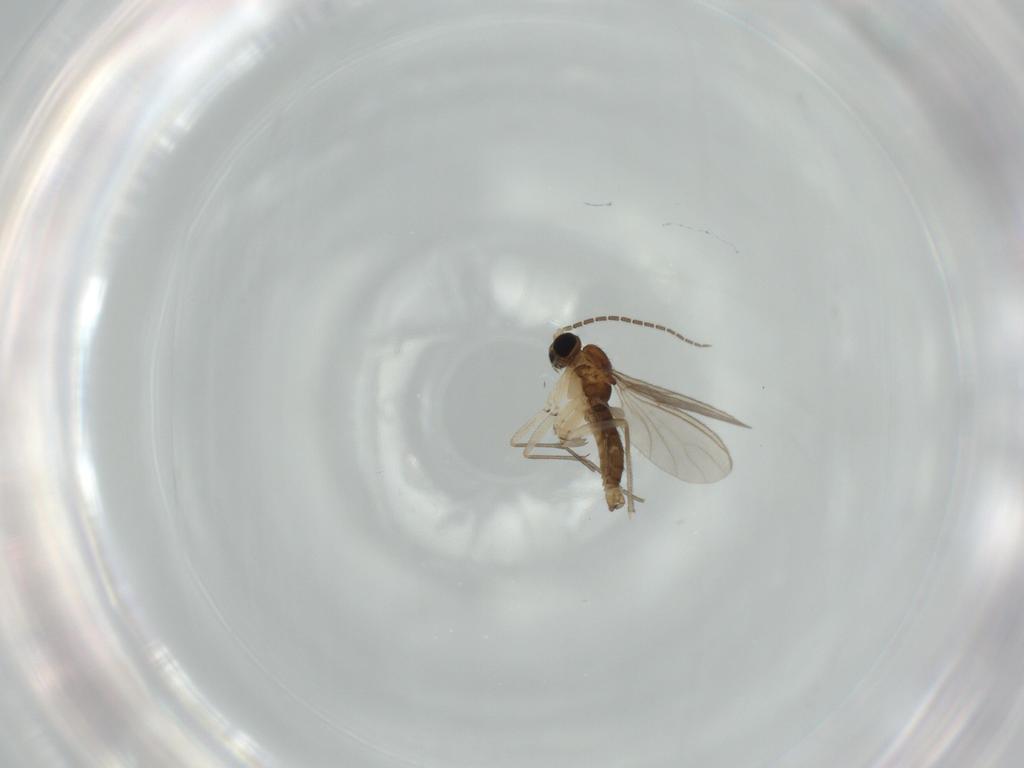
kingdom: Animalia
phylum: Arthropoda
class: Insecta
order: Diptera
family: Sciaridae
